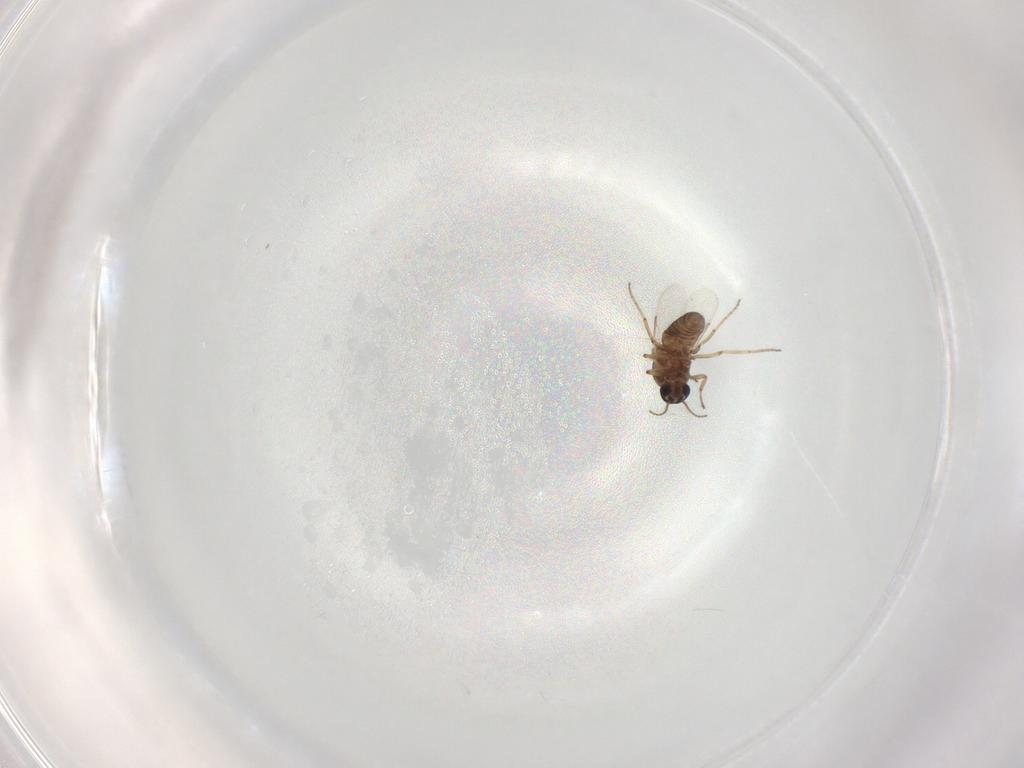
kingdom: Animalia
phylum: Arthropoda
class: Insecta
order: Diptera
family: Ceratopogonidae
